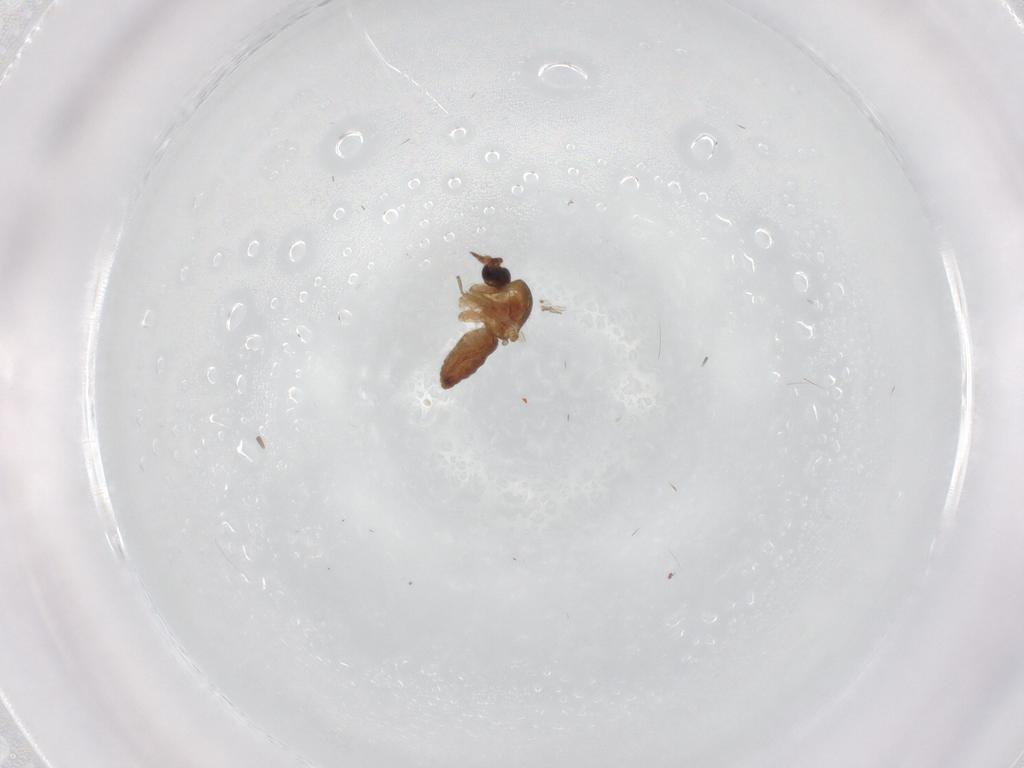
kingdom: Animalia
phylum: Arthropoda
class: Insecta
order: Diptera
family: Ceratopogonidae
